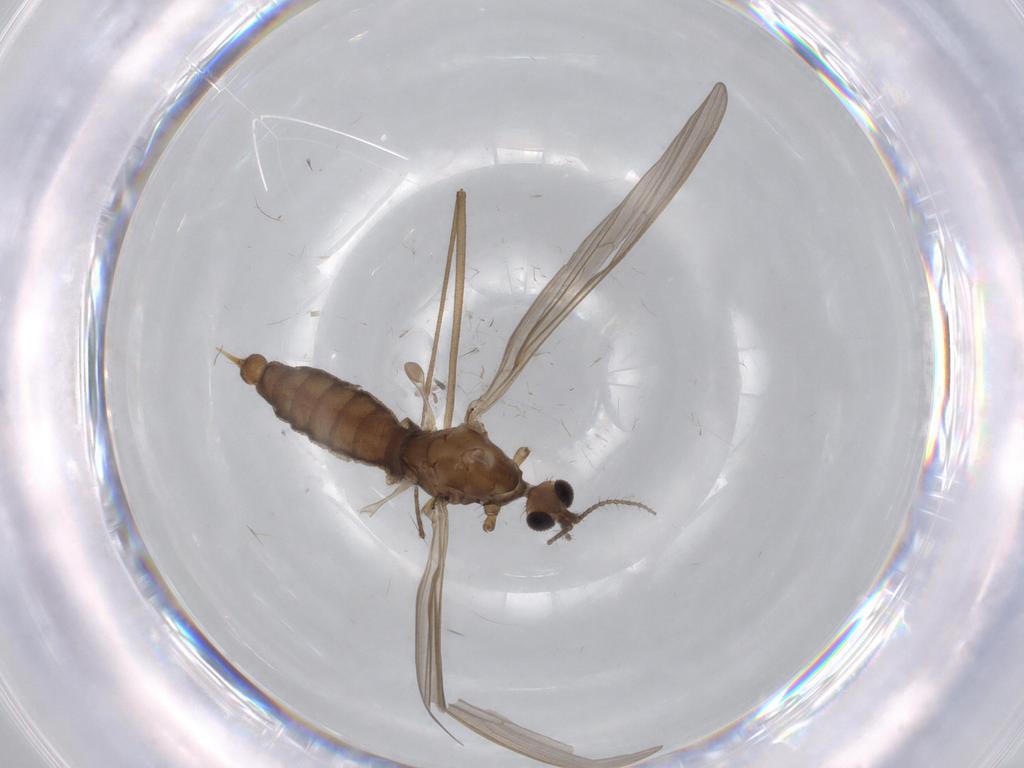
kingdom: Animalia
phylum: Arthropoda
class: Insecta
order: Diptera
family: Limoniidae
